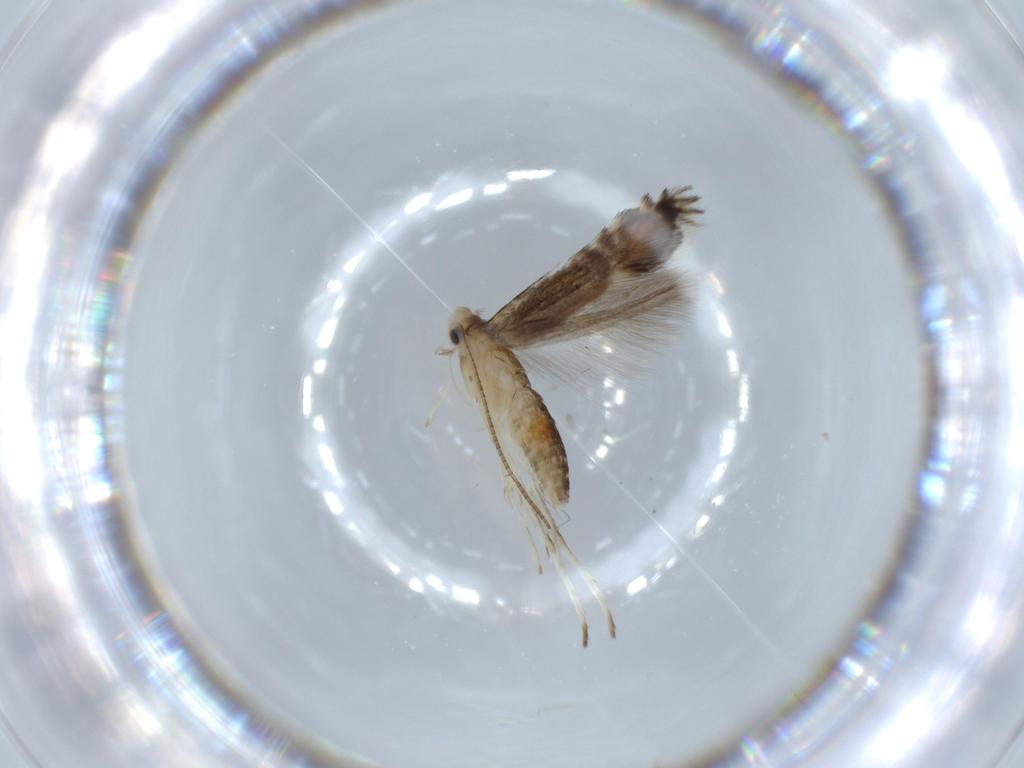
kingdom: Animalia
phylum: Arthropoda
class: Insecta
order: Lepidoptera
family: Gracillariidae
